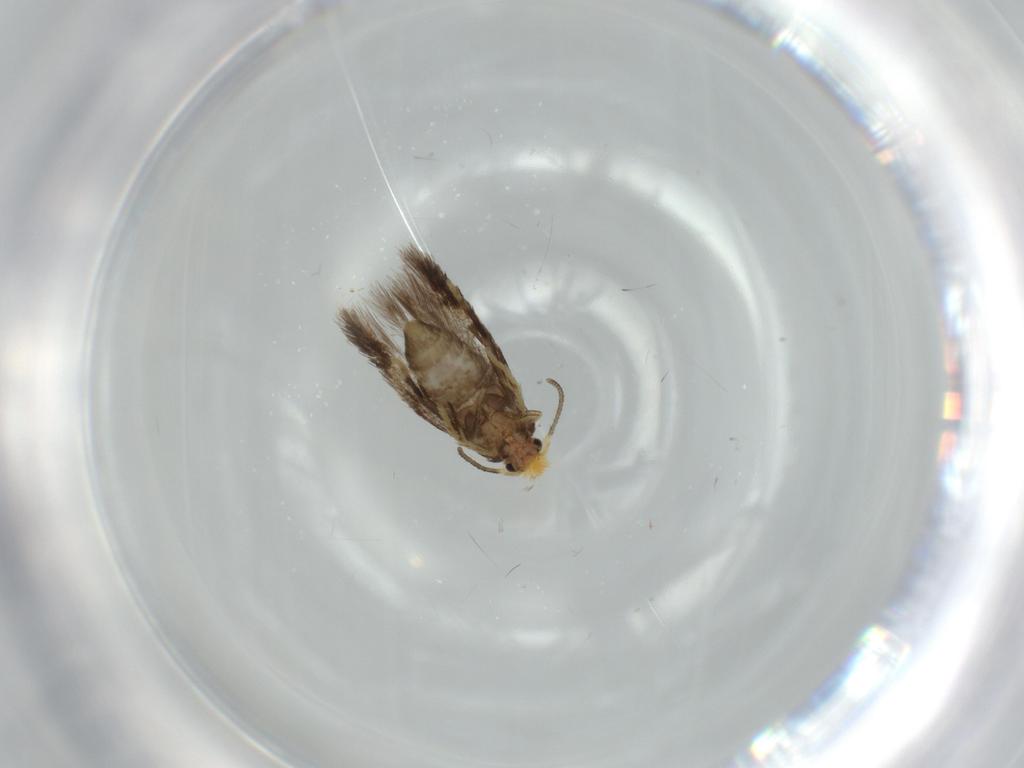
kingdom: Animalia
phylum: Arthropoda
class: Insecta
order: Lepidoptera
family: Nepticulidae
